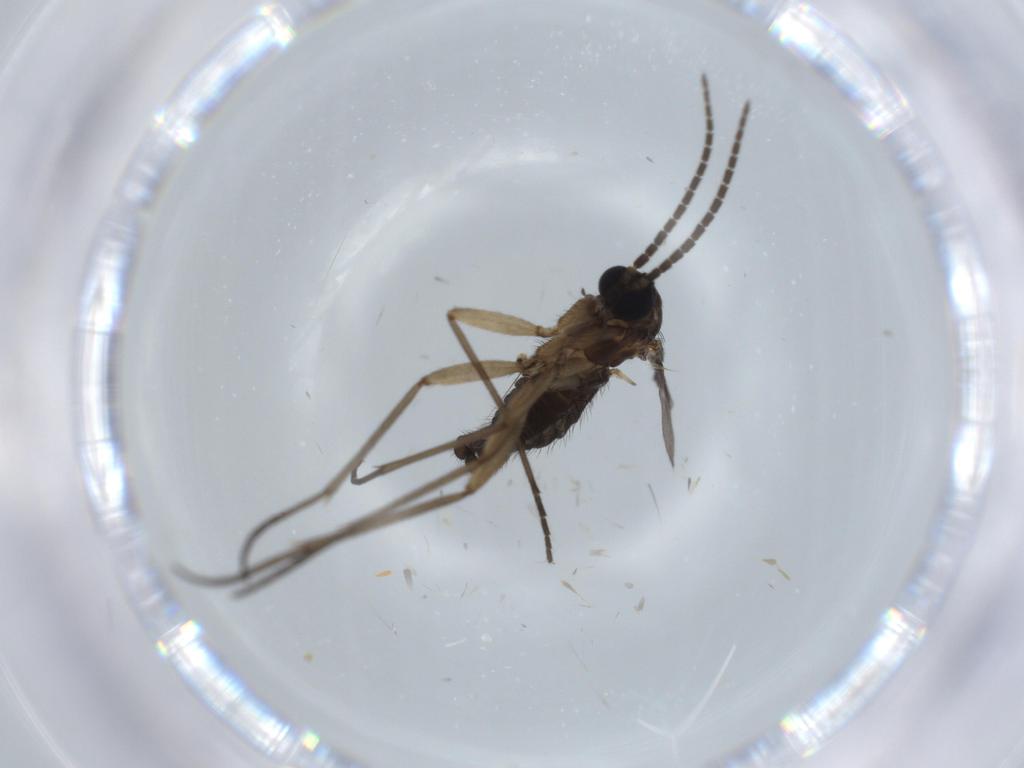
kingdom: Animalia
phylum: Arthropoda
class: Insecta
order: Diptera
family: Sciaridae
